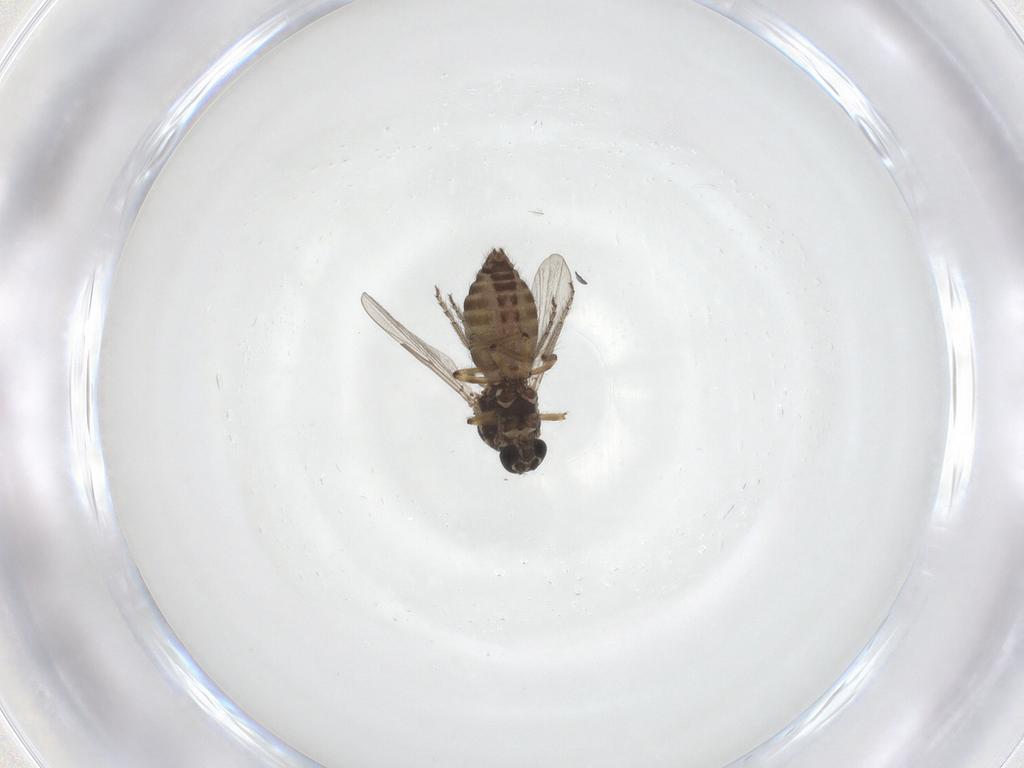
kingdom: Animalia
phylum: Arthropoda
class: Insecta
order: Diptera
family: Ceratopogonidae
